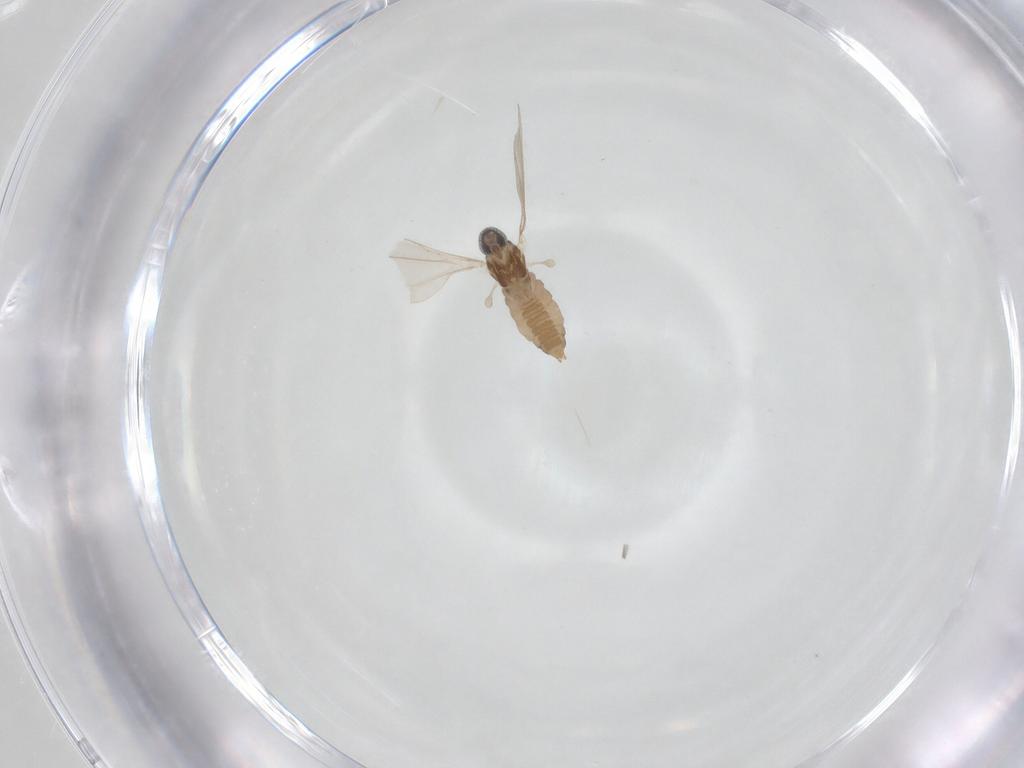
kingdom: Animalia
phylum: Arthropoda
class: Insecta
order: Diptera
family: Cecidomyiidae
